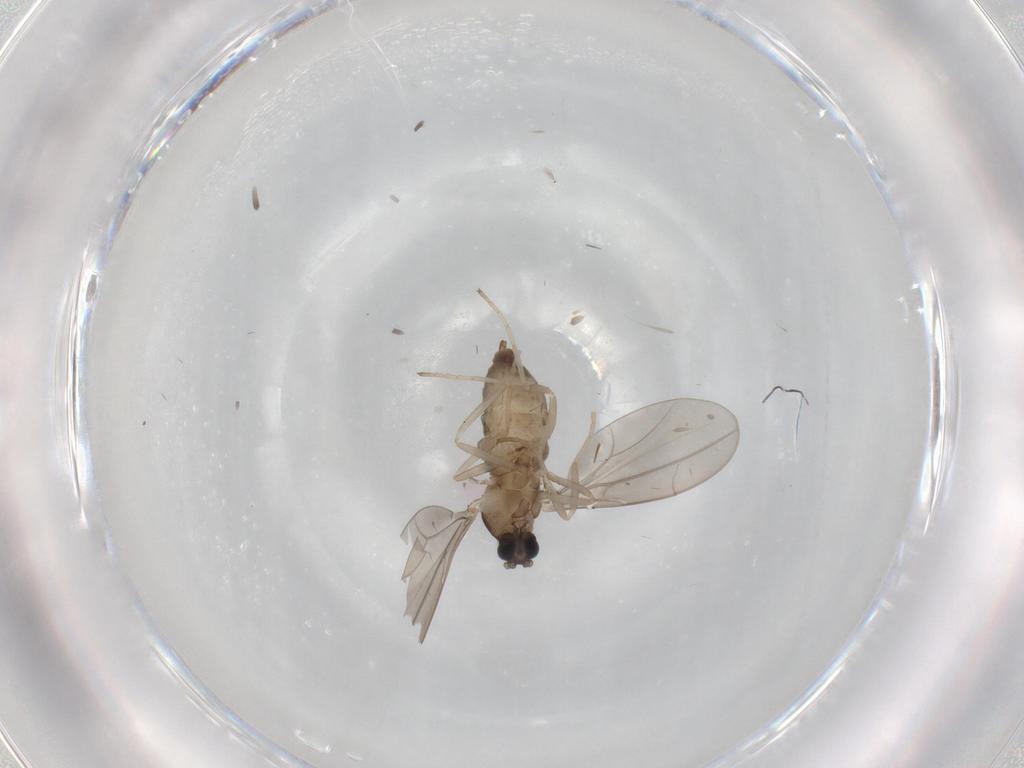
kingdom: Animalia
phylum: Arthropoda
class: Insecta
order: Diptera
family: Cecidomyiidae
